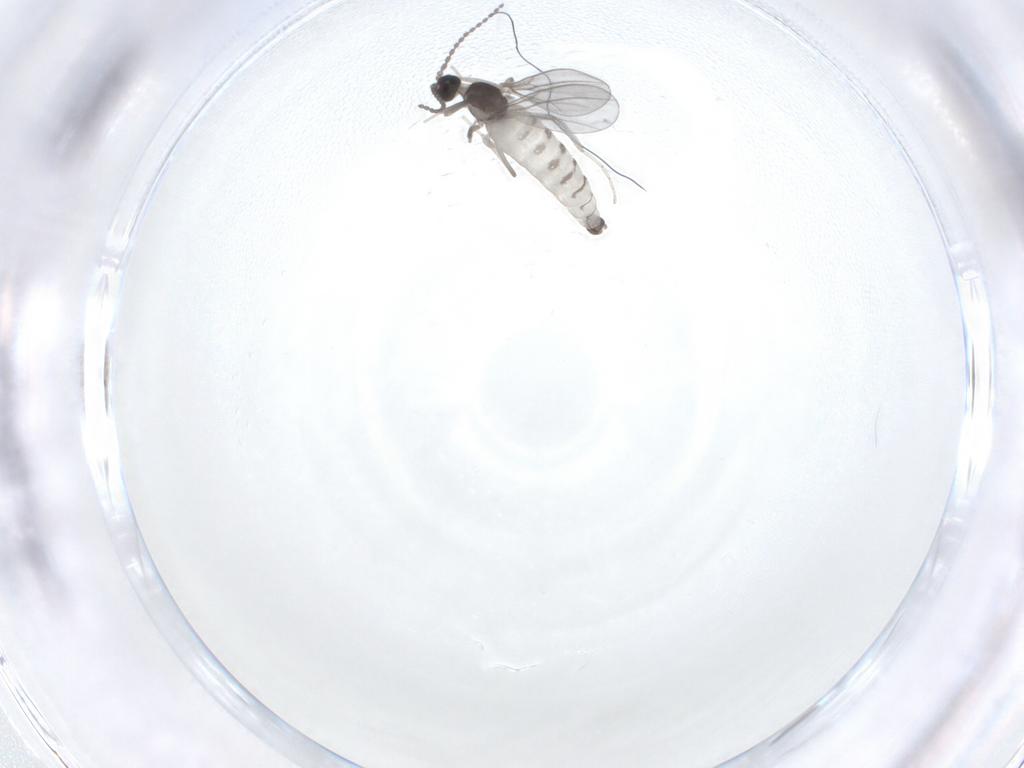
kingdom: Animalia
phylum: Arthropoda
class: Insecta
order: Diptera
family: Cecidomyiidae
